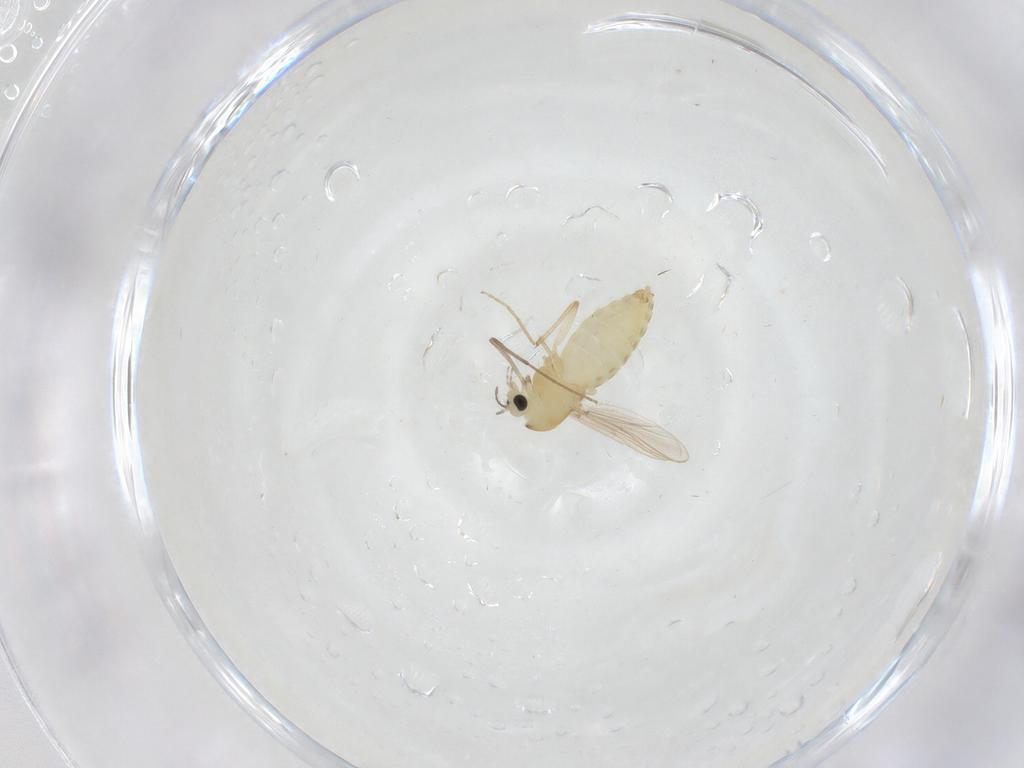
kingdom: Animalia
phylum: Arthropoda
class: Insecta
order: Diptera
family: Chironomidae
